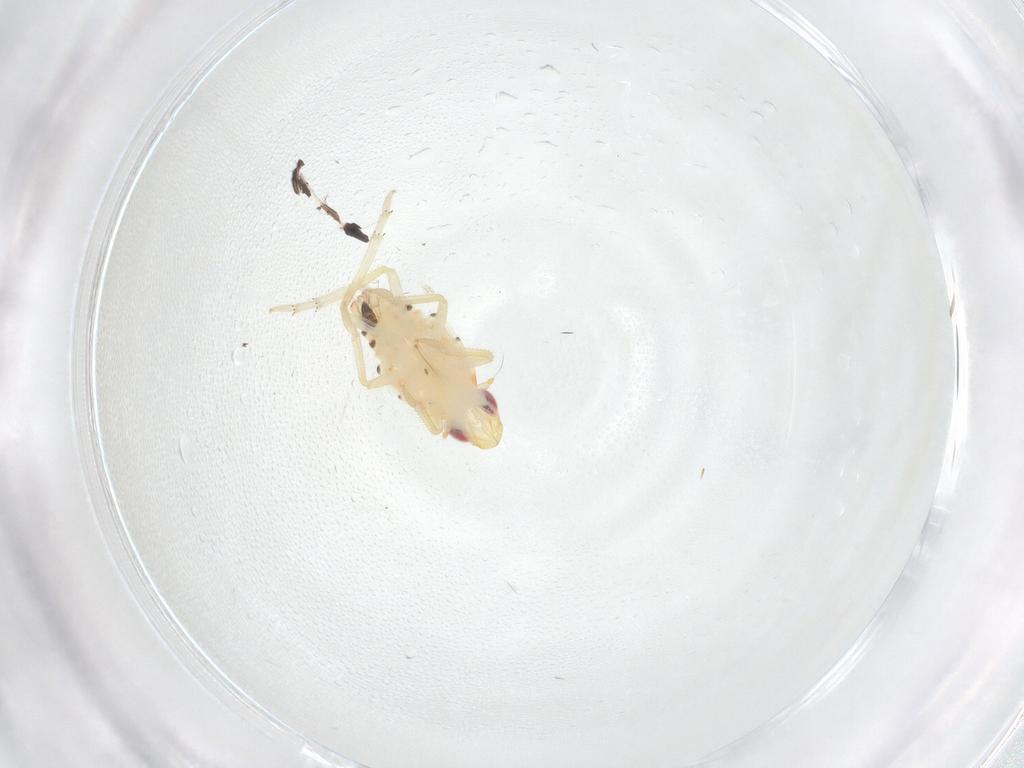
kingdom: Animalia
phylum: Arthropoda
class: Insecta
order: Hemiptera
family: Tropiduchidae
